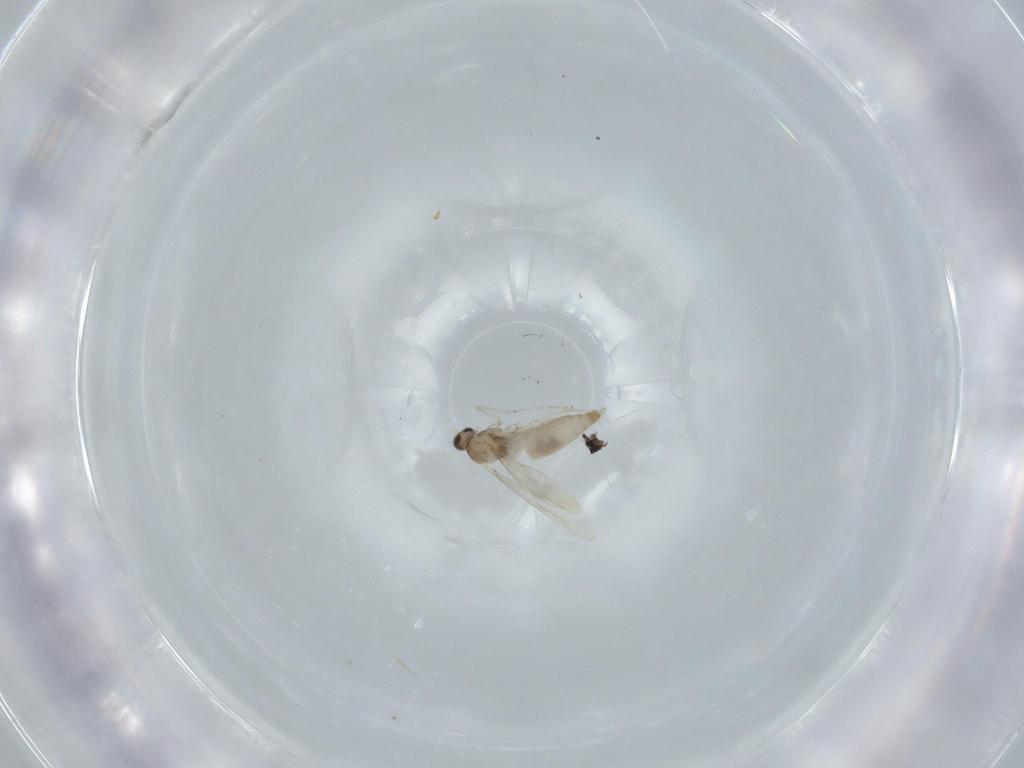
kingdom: Animalia
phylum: Arthropoda
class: Insecta
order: Diptera
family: Cecidomyiidae
